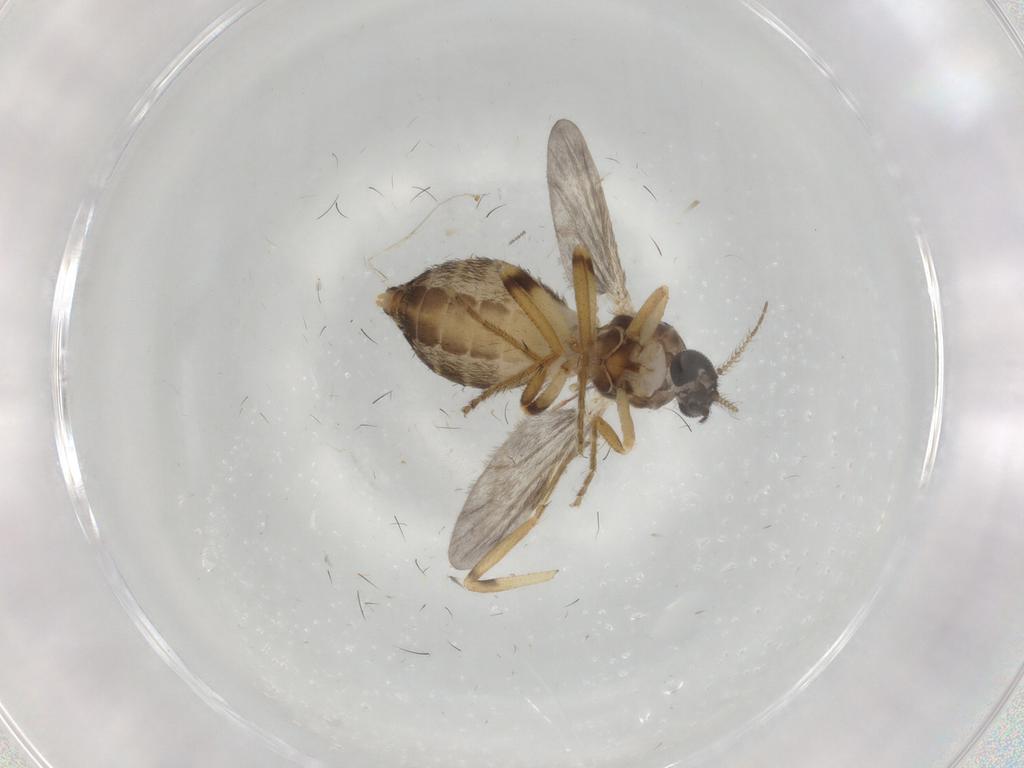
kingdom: Animalia
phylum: Arthropoda
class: Insecta
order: Diptera
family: Ceratopogonidae
